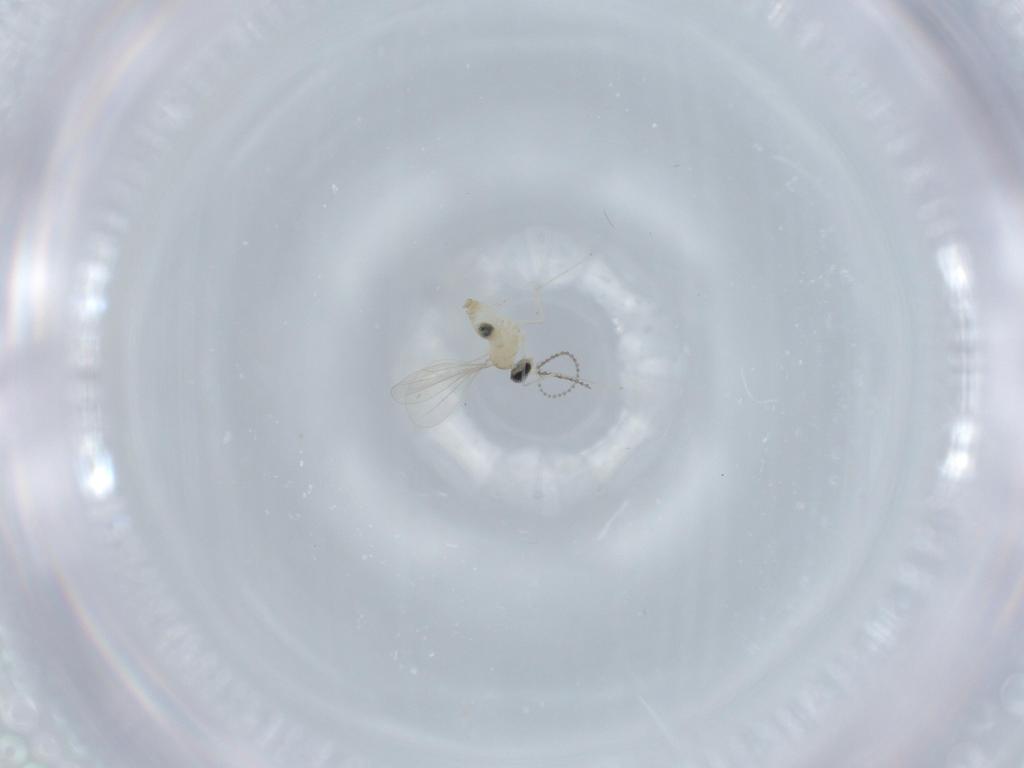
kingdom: Animalia
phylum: Arthropoda
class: Insecta
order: Diptera
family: Cecidomyiidae
